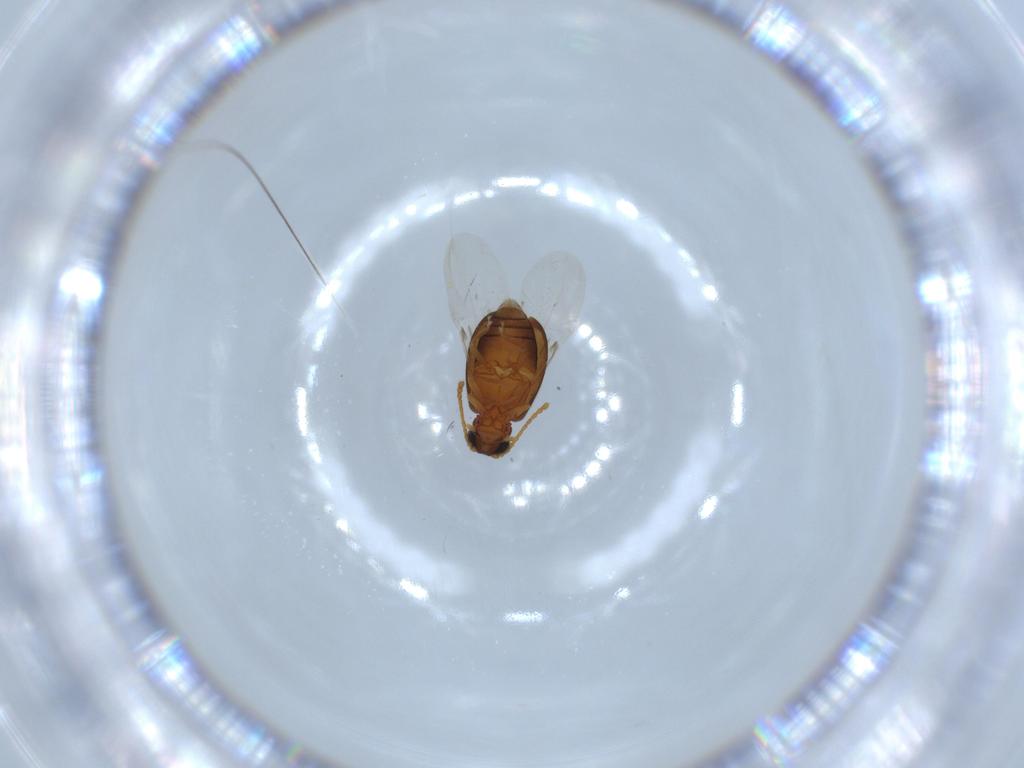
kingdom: Animalia
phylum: Arthropoda
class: Insecta
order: Coleoptera
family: Aderidae
